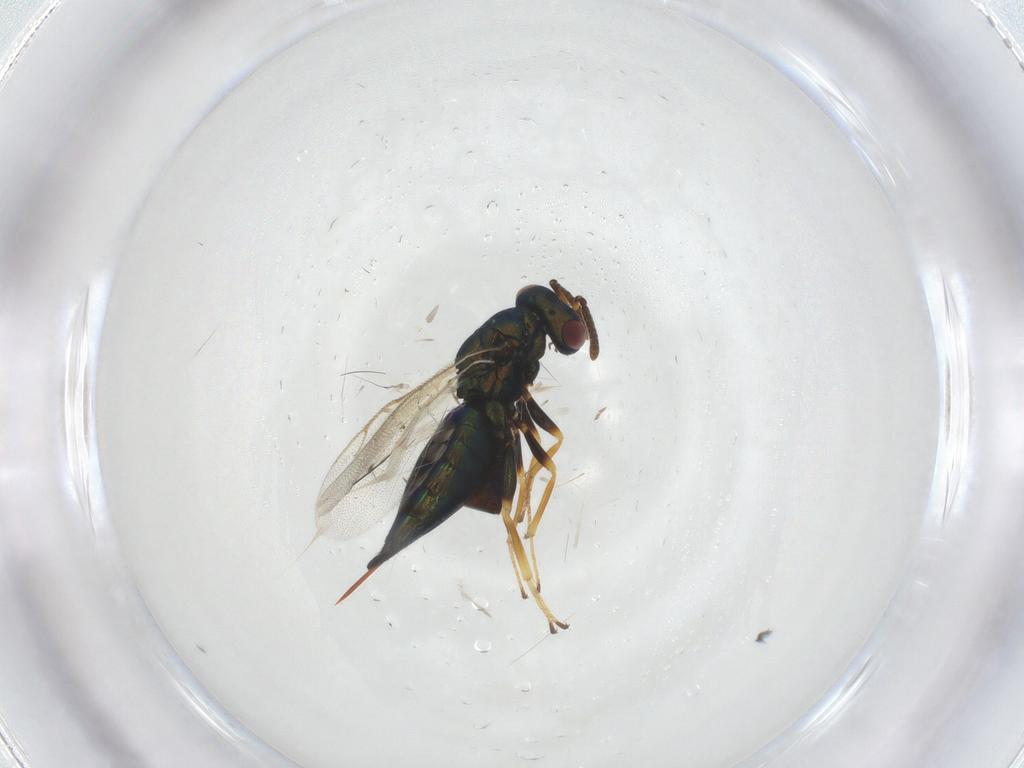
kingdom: Animalia
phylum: Arthropoda
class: Insecta
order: Hymenoptera
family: Pteromalidae
